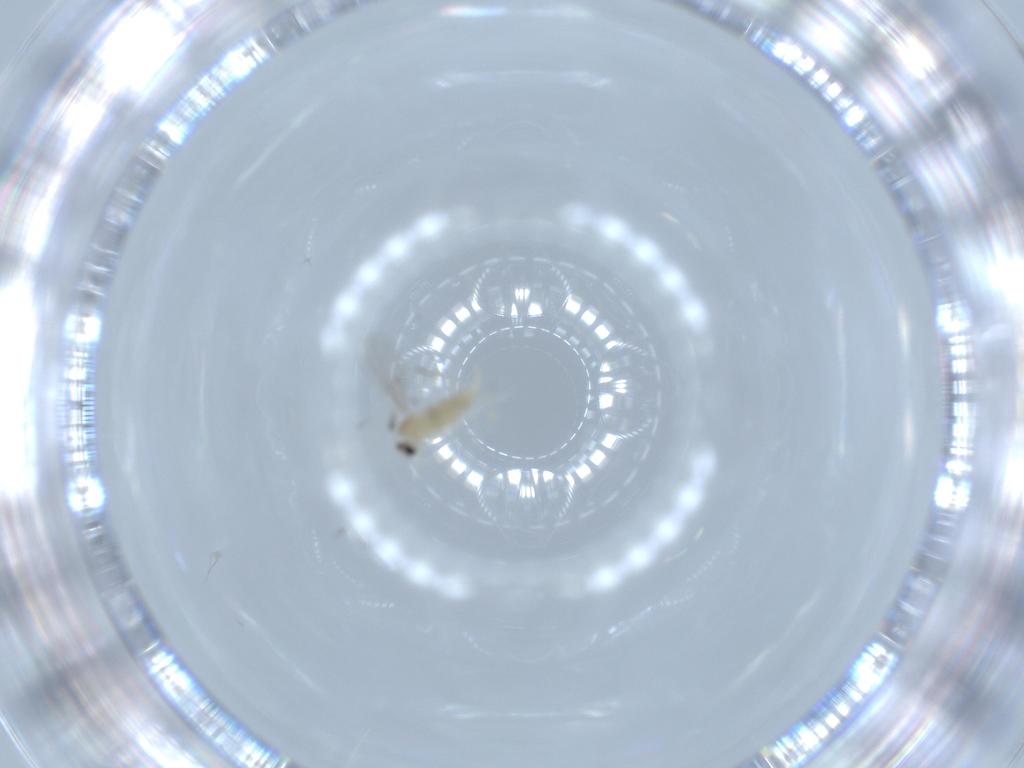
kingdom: Animalia
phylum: Arthropoda
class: Insecta
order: Diptera
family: Cecidomyiidae
